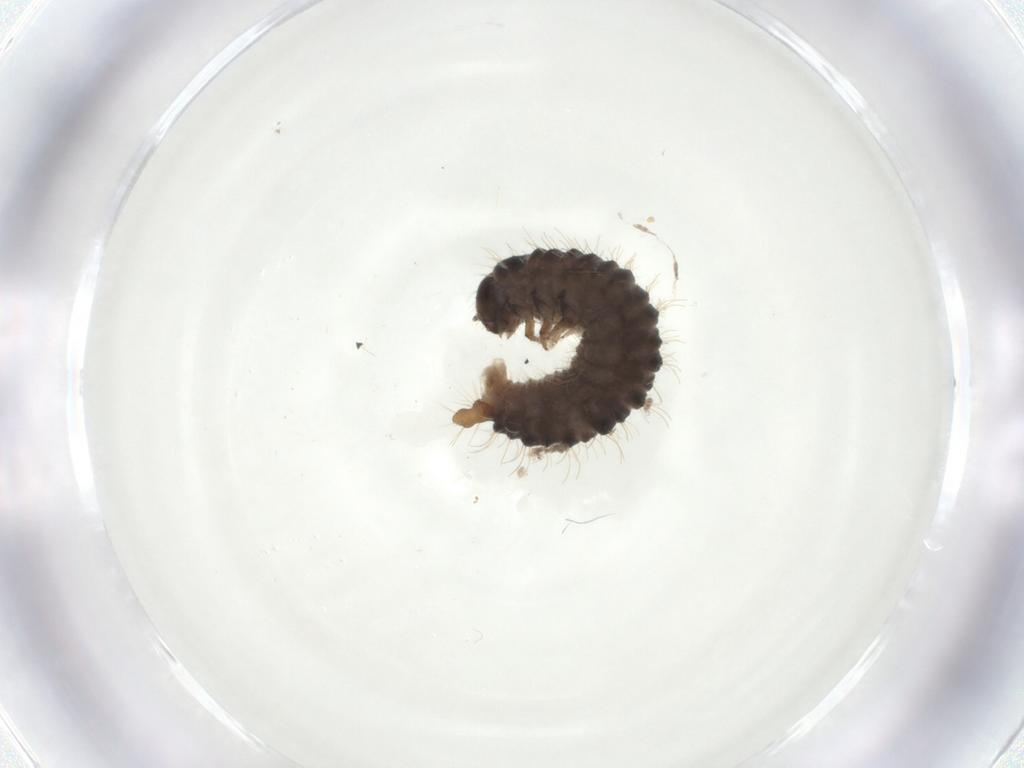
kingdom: Animalia
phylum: Arthropoda
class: Insecta
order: Coleoptera
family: Chrysomelidae
